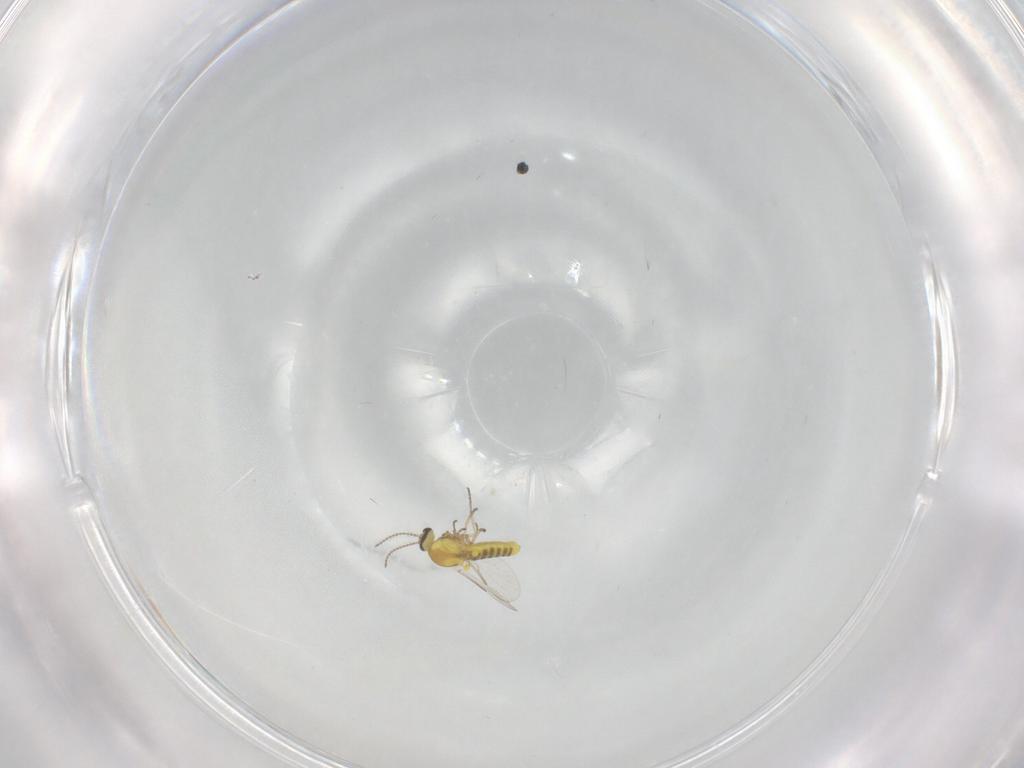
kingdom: Animalia
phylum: Arthropoda
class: Insecta
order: Diptera
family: Ceratopogonidae
